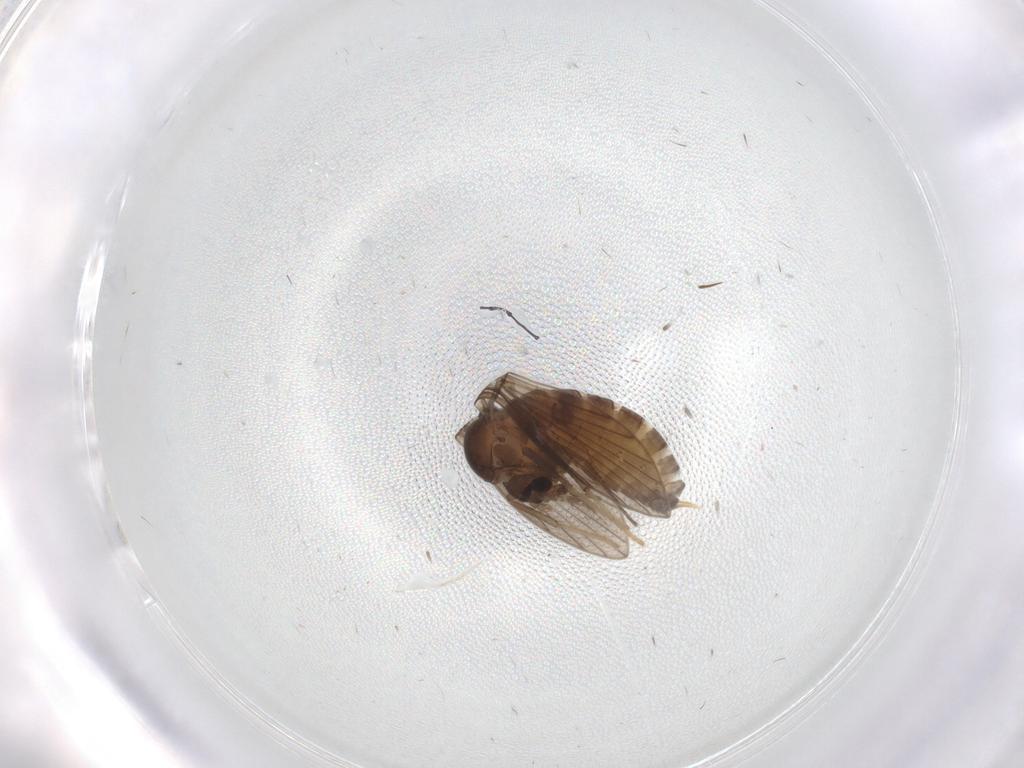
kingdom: Animalia
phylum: Arthropoda
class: Insecta
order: Diptera
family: Psychodidae
